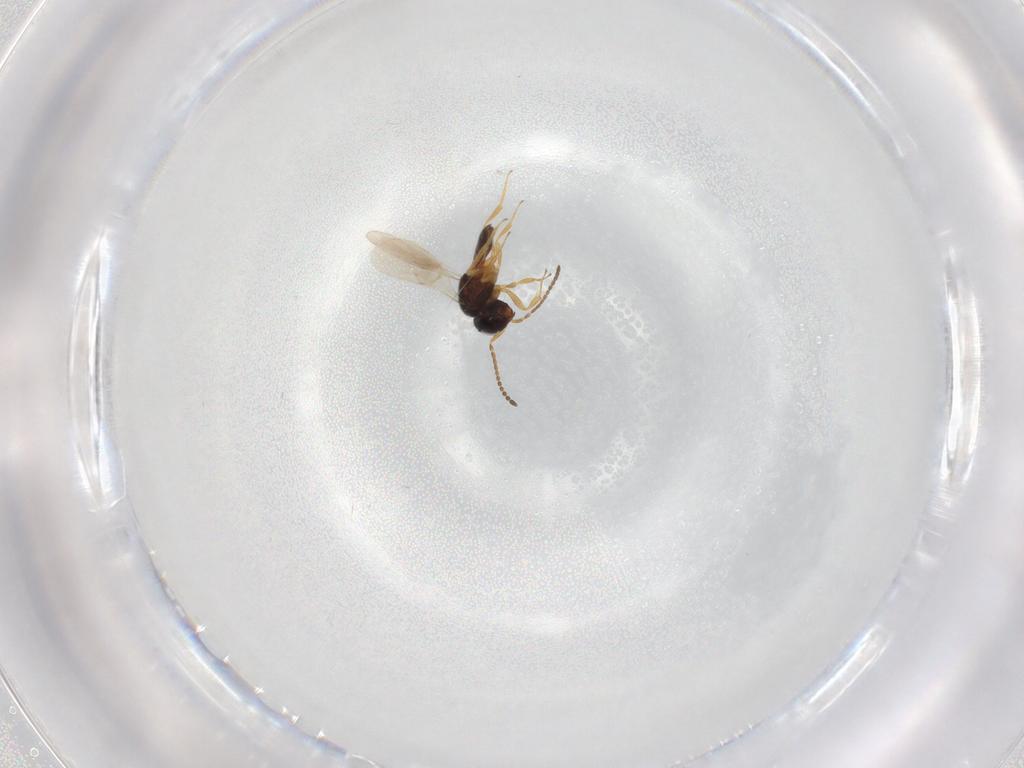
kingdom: Animalia
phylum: Arthropoda
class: Insecta
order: Hymenoptera
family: Scelionidae
